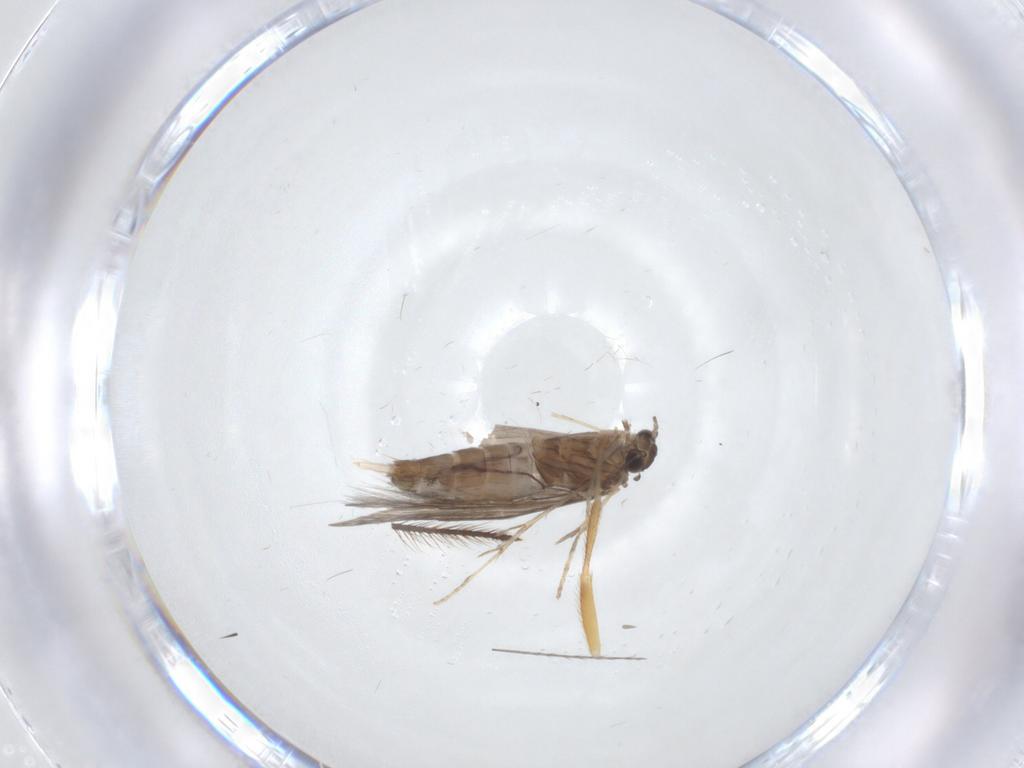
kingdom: Animalia
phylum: Arthropoda
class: Insecta
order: Trichoptera
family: Hydroptilidae
